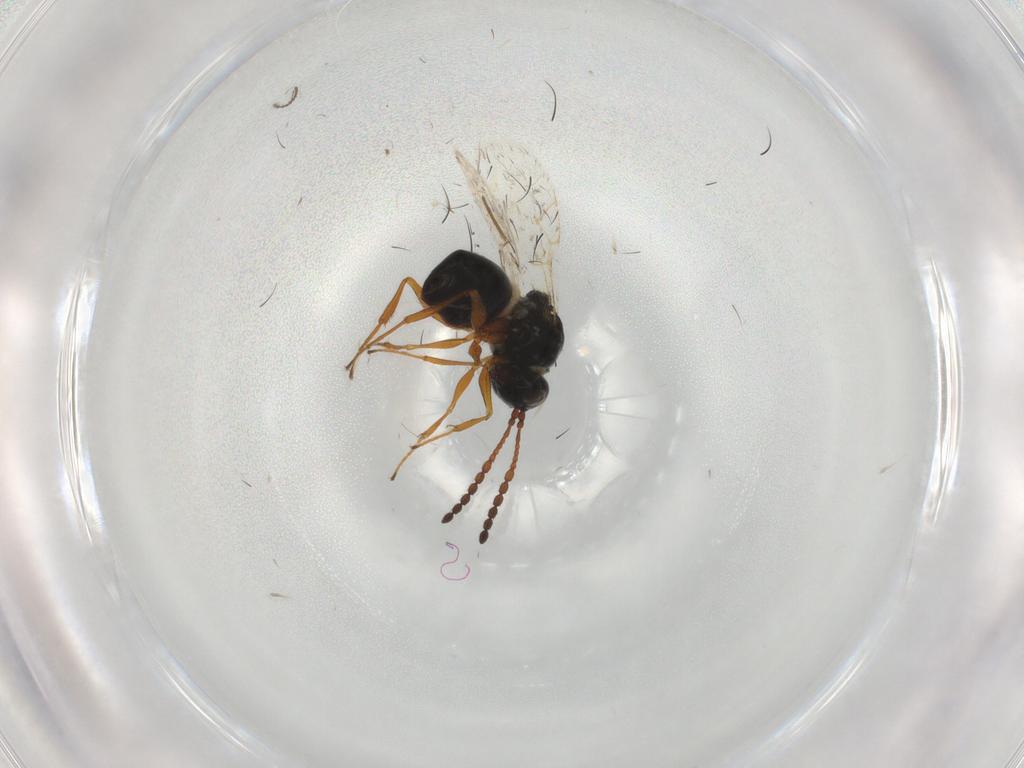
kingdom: Animalia
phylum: Arthropoda
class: Insecta
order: Hymenoptera
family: Figitidae
